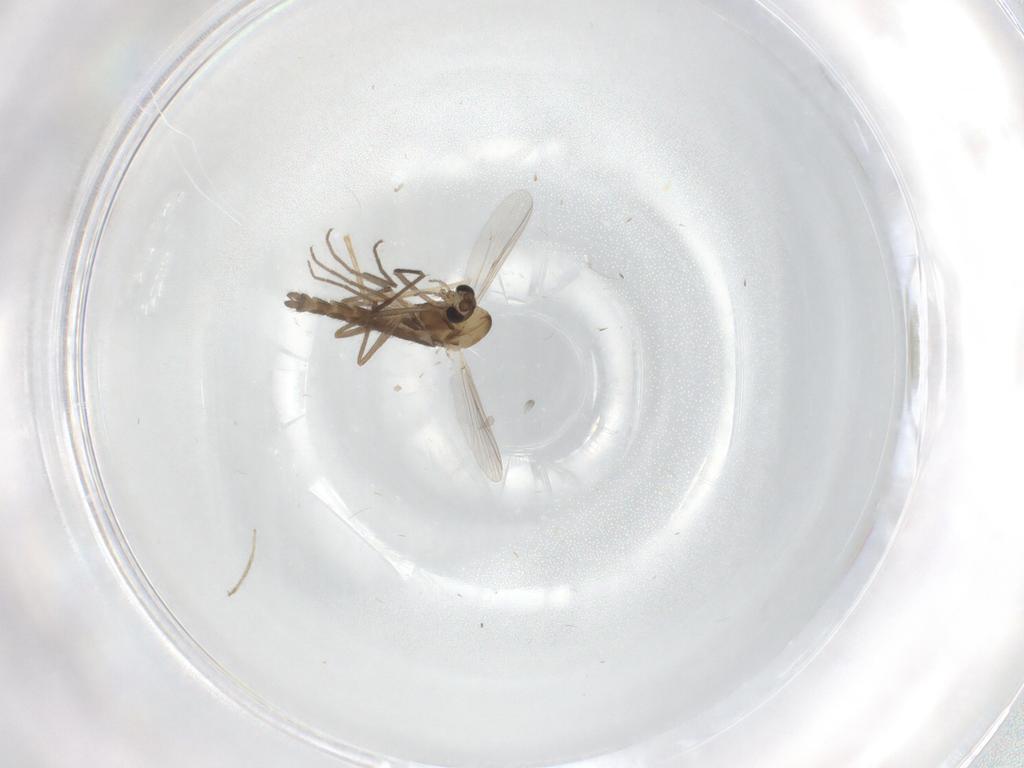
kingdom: Animalia
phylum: Arthropoda
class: Insecta
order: Diptera
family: Chironomidae
